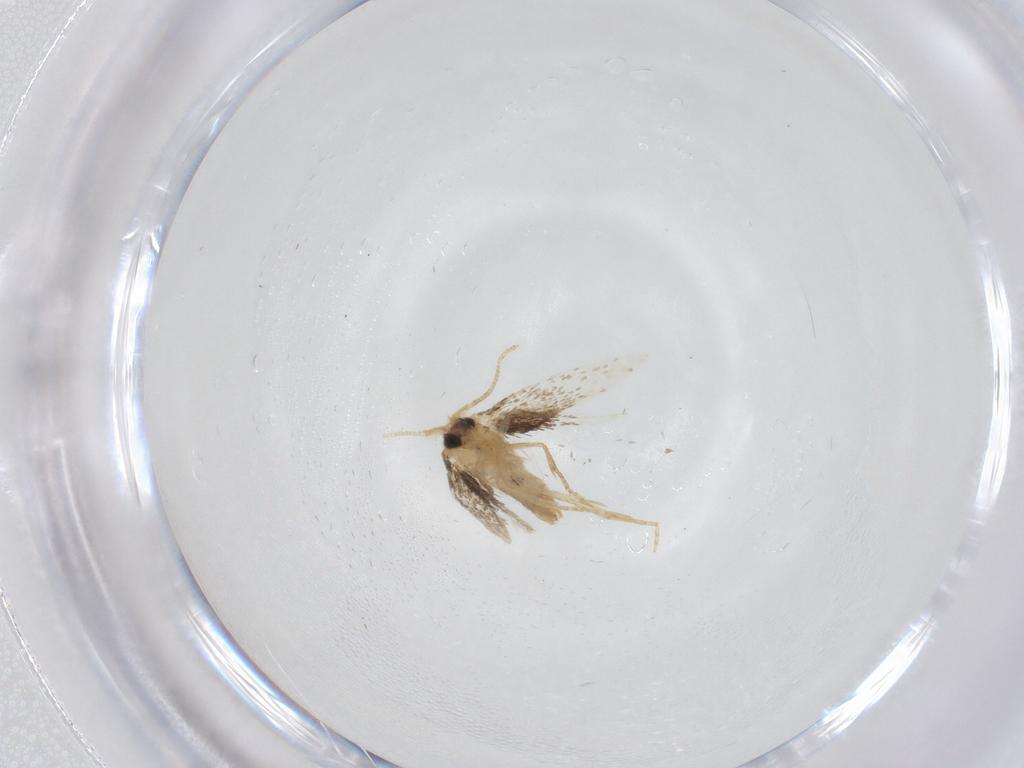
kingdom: Animalia
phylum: Arthropoda
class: Insecta
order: Lepidoptera
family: Nepticulidae
